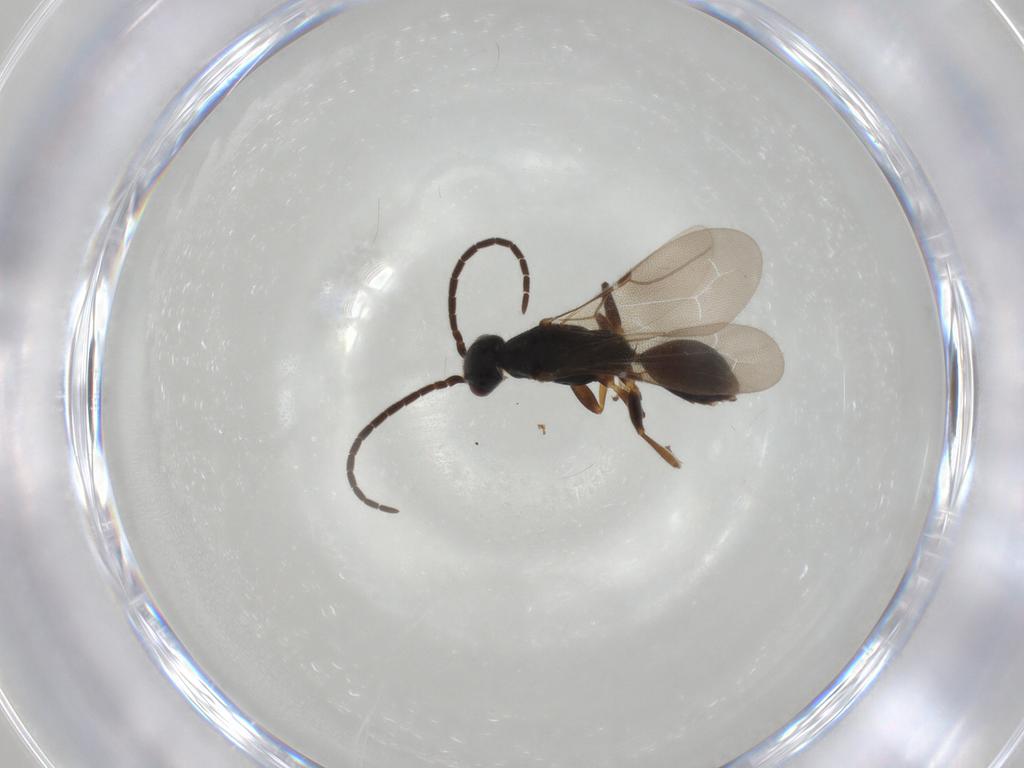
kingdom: Animalia
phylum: Arthropoda
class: Insecta
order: Hymenoptera
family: Bethylidae
